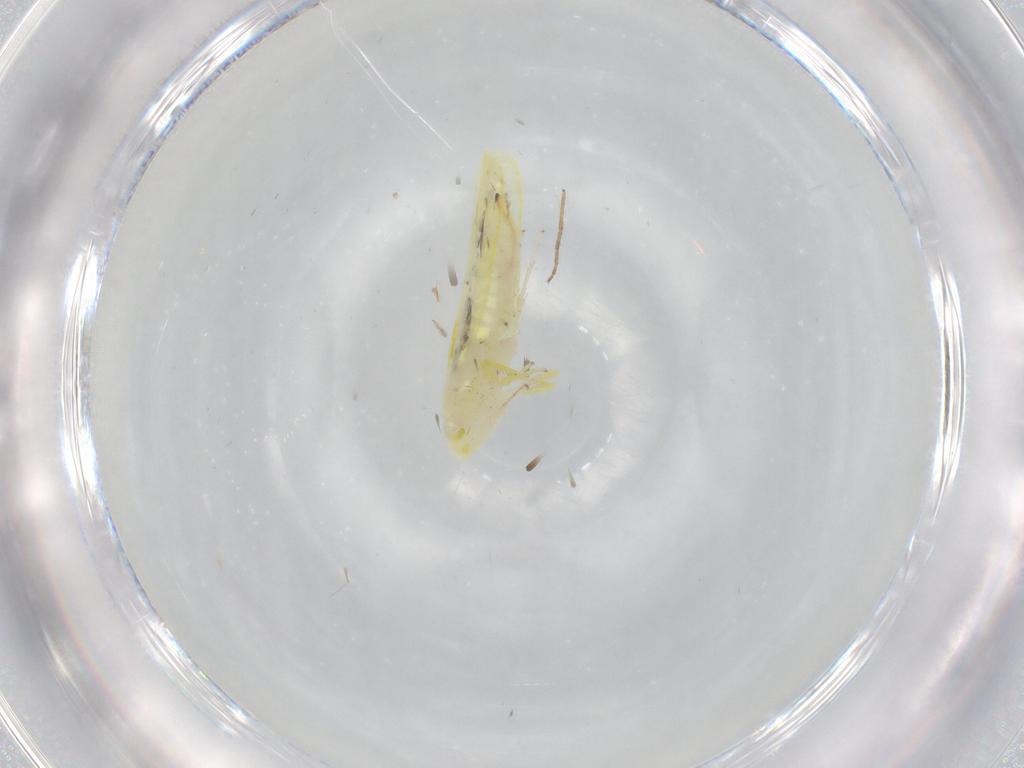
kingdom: Animalia
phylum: Arthropoda
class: Insecta
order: Hemiptera
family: Cicadellidae
